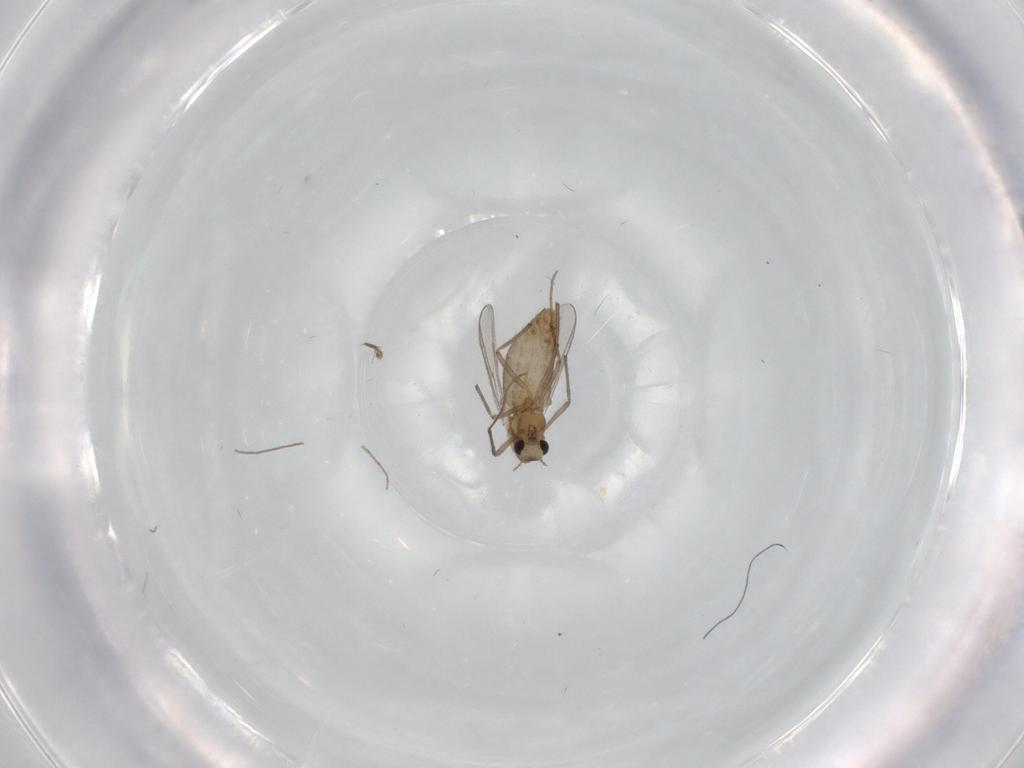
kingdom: Animalia
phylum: Arthropoda
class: Insecta
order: Diptera
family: Chironomidae
